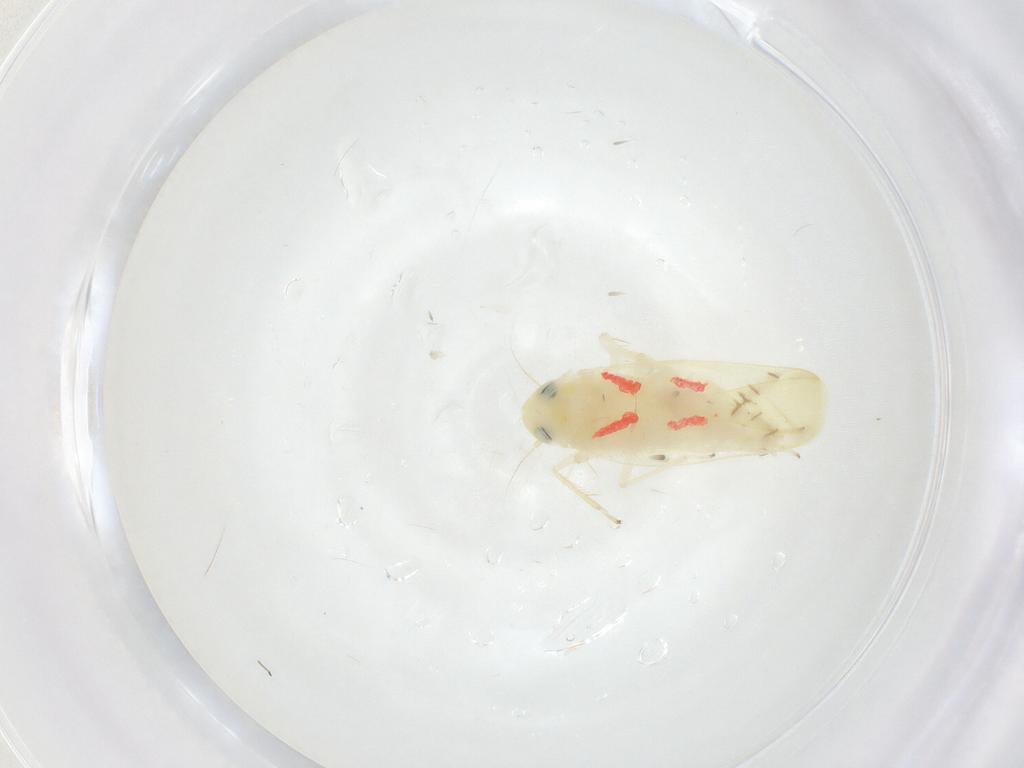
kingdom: Animalia
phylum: Arthropoda
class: Insecta
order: Hemiptera
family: Cicadellidae
